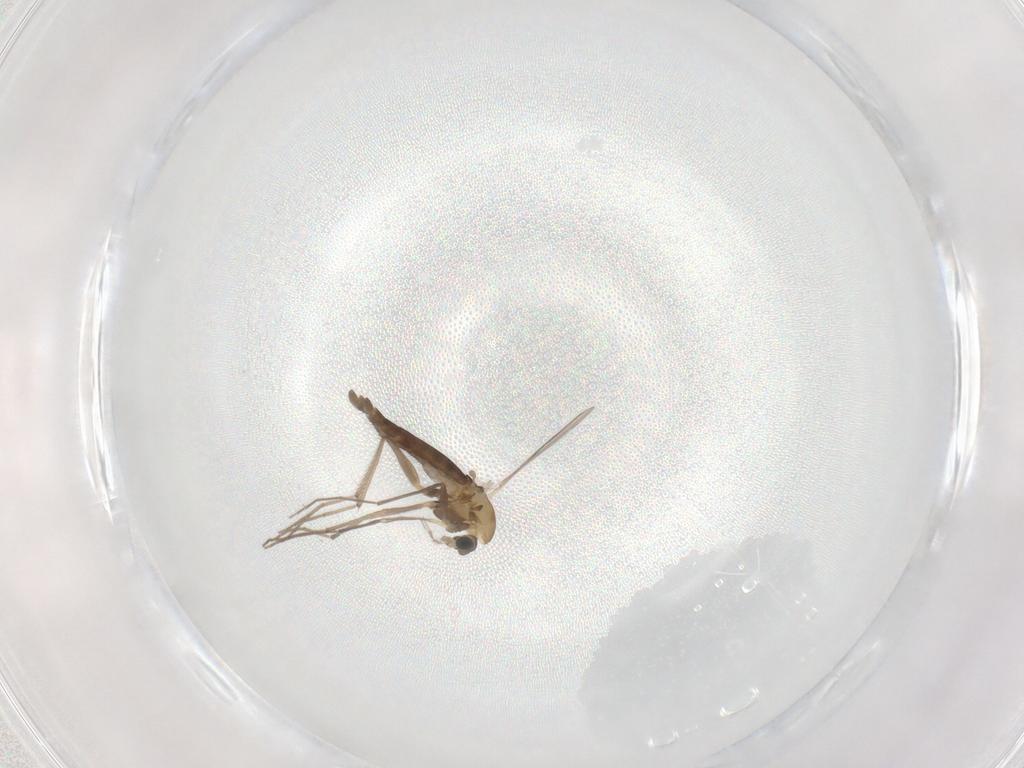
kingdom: Animalia
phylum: Arthropoda
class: Insecta
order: Diptera
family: Chironomidae
